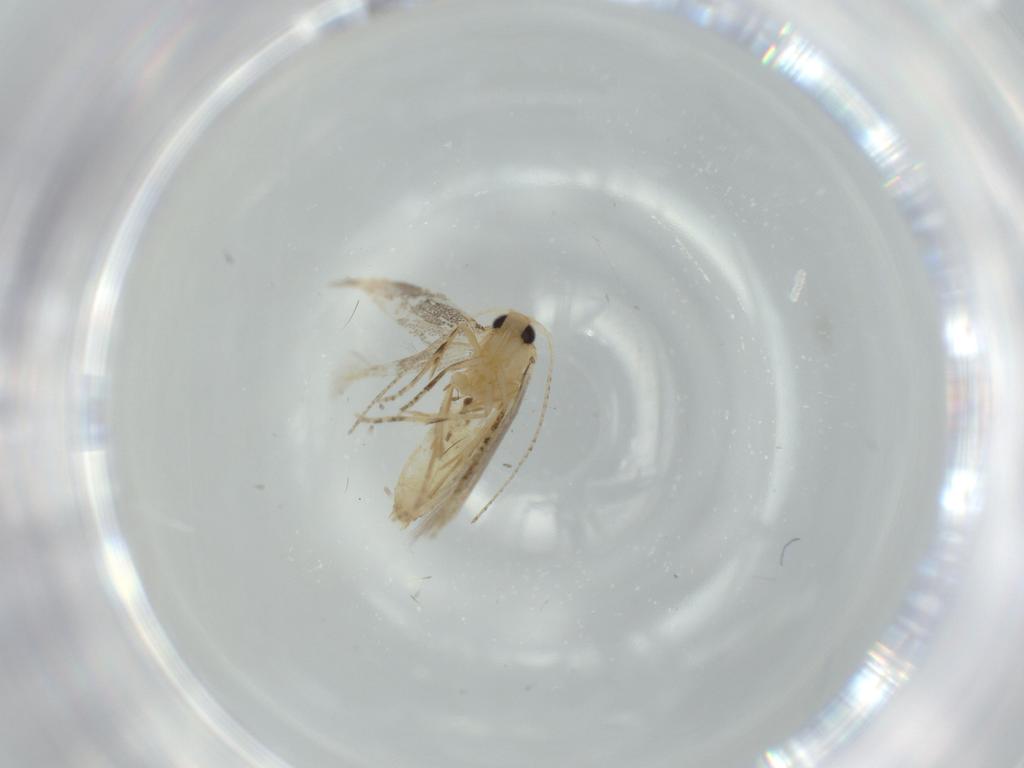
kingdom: Animalia
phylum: Arthropoda
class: Insecta
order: Lepidoptera
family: Bucculatricidae
